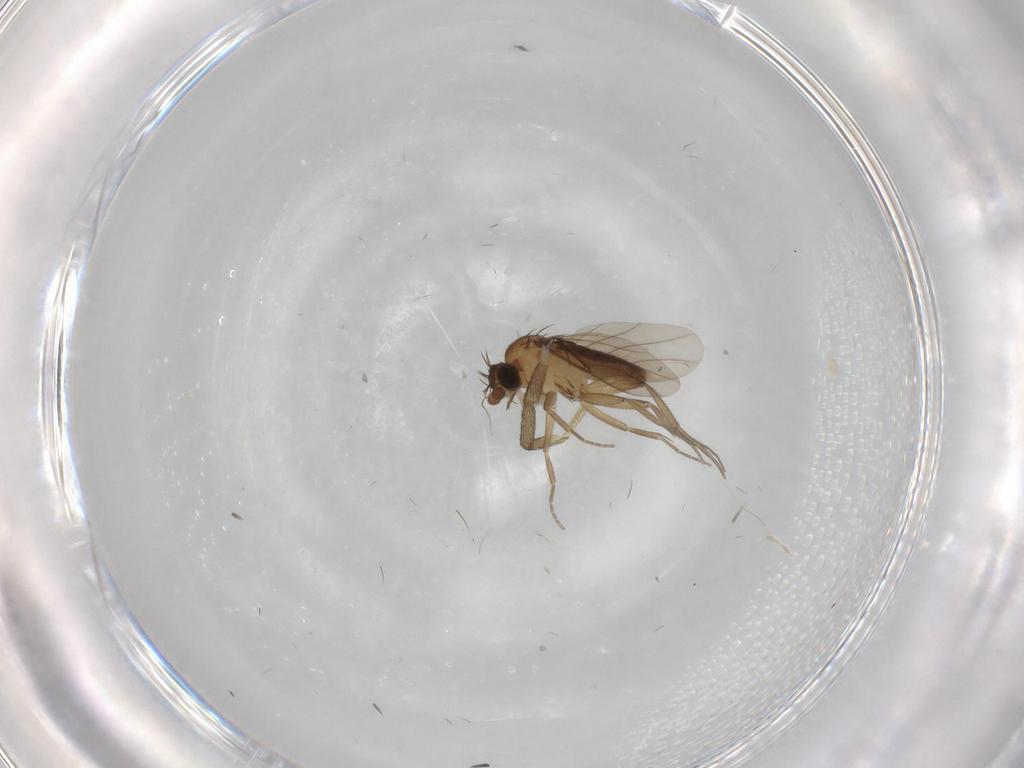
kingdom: Animalia
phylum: Arthropoda
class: Insecta
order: Diptera
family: Phoridae
